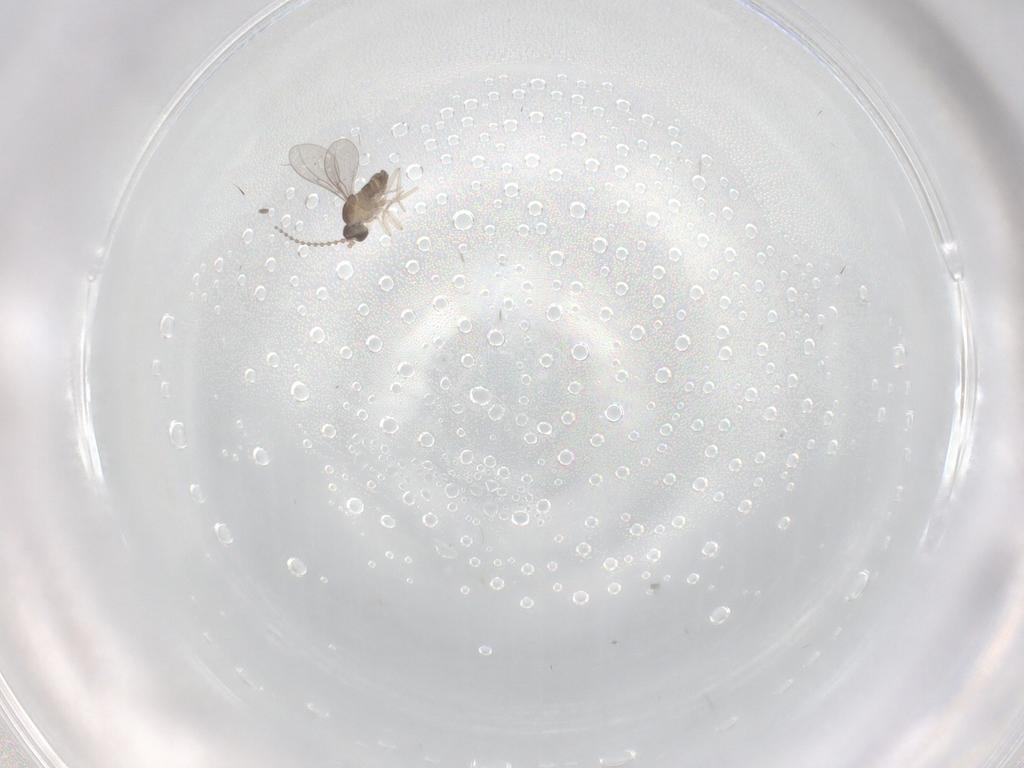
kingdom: Animalia
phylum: Arthropoda
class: Insecta
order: Diptera
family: Cecidomyiidae
